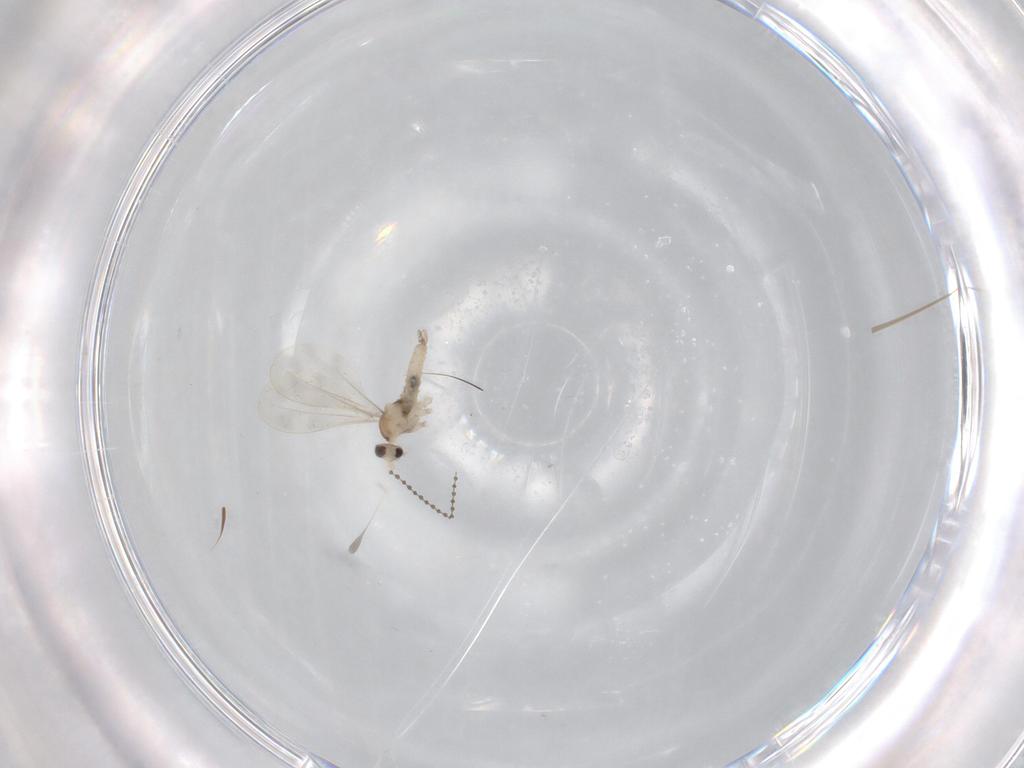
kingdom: Animalia
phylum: Arthropoda
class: Insecta
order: Diptera
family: Cecidomyiidae
